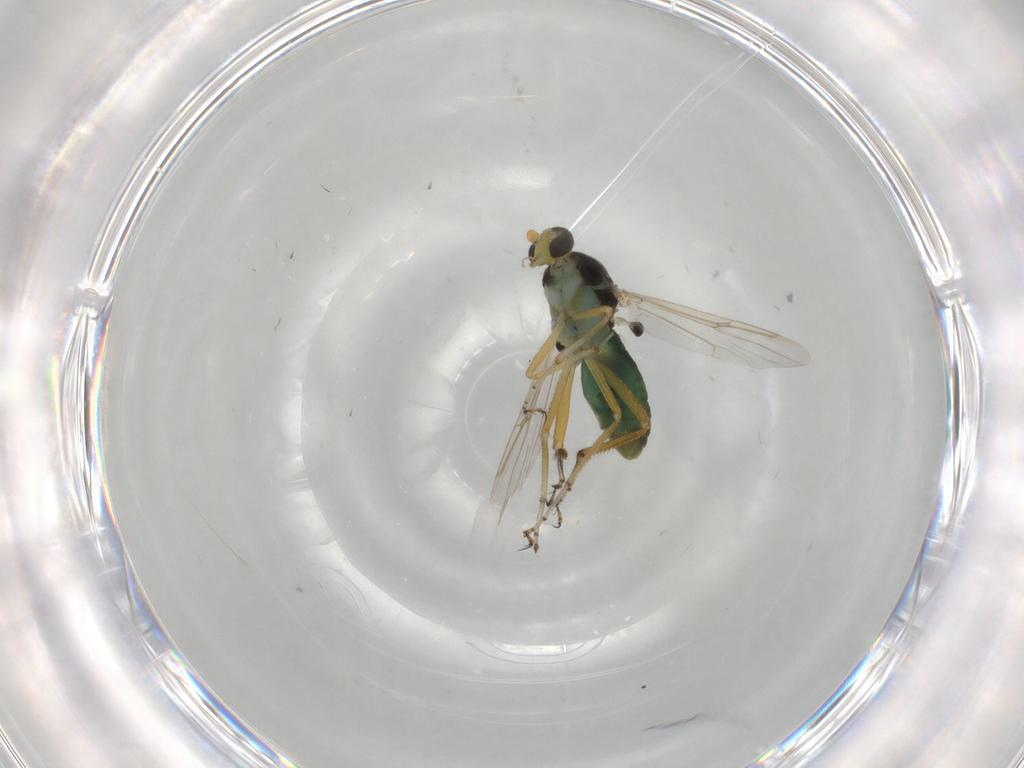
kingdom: Animalia
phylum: Arthropoda
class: Insecta
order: Diptera
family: Ceratopogonidae
